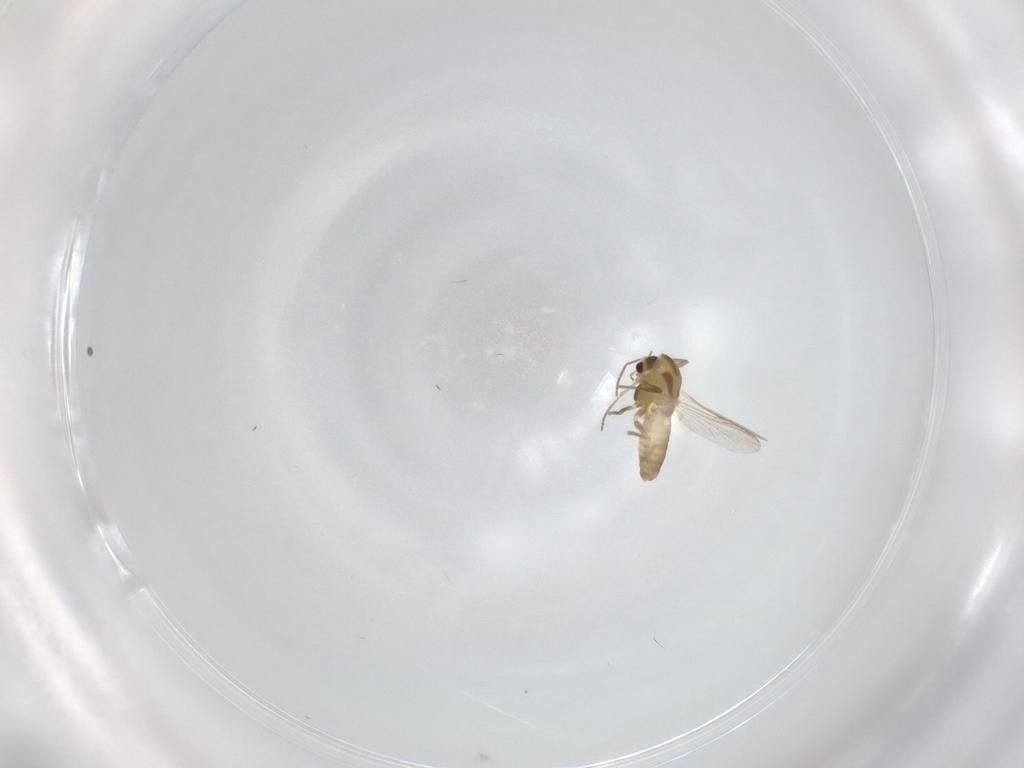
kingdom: Animalia
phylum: Arthropoda
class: Insecta
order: Diptera
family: Chironomidae
